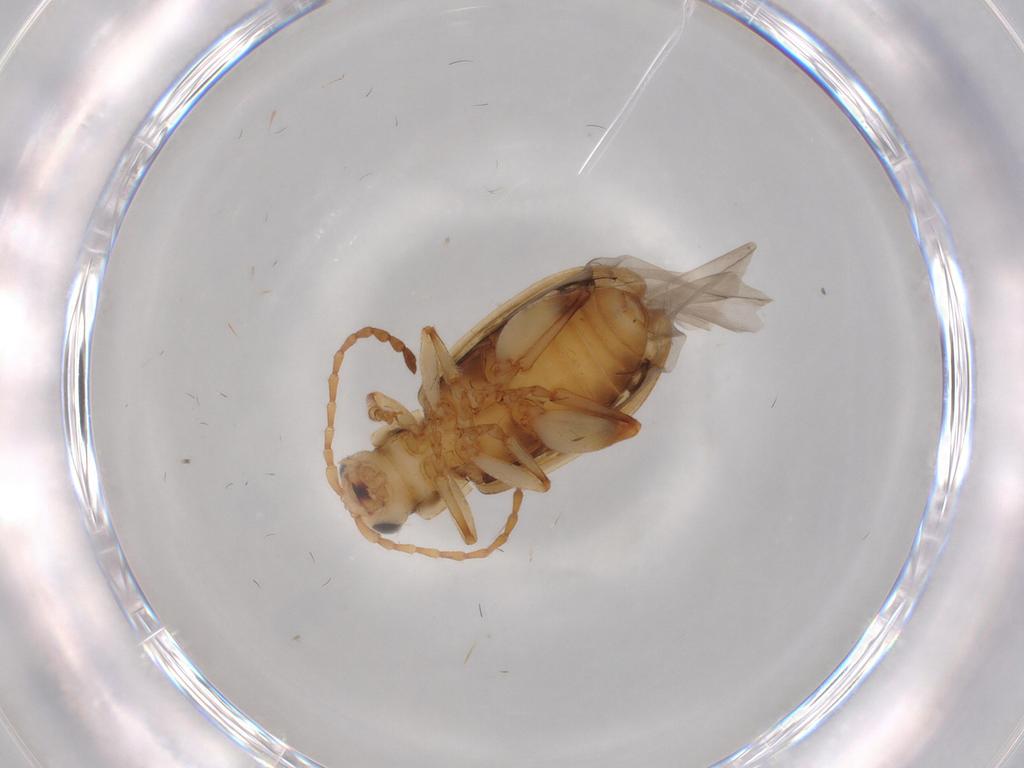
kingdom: Animalia
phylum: Arthropoda
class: Insecta
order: Coleoptera
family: Chrysomelidae
